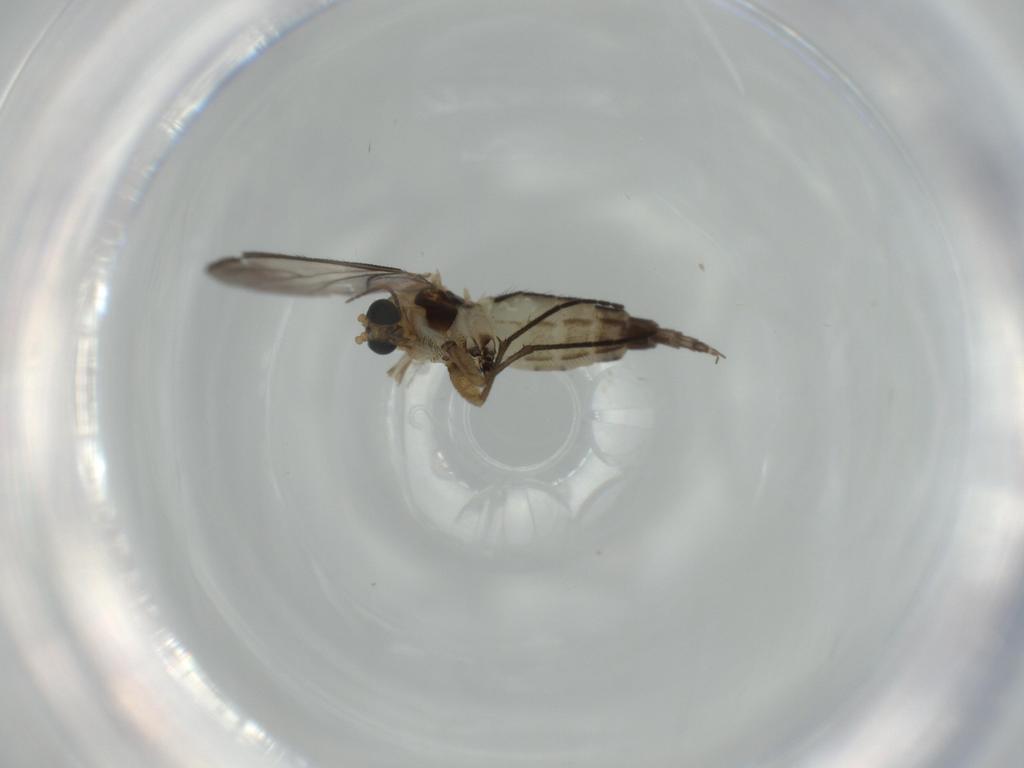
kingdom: Animalia
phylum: Arthropoda
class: Insecta
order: Diptera
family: Sciaridae
